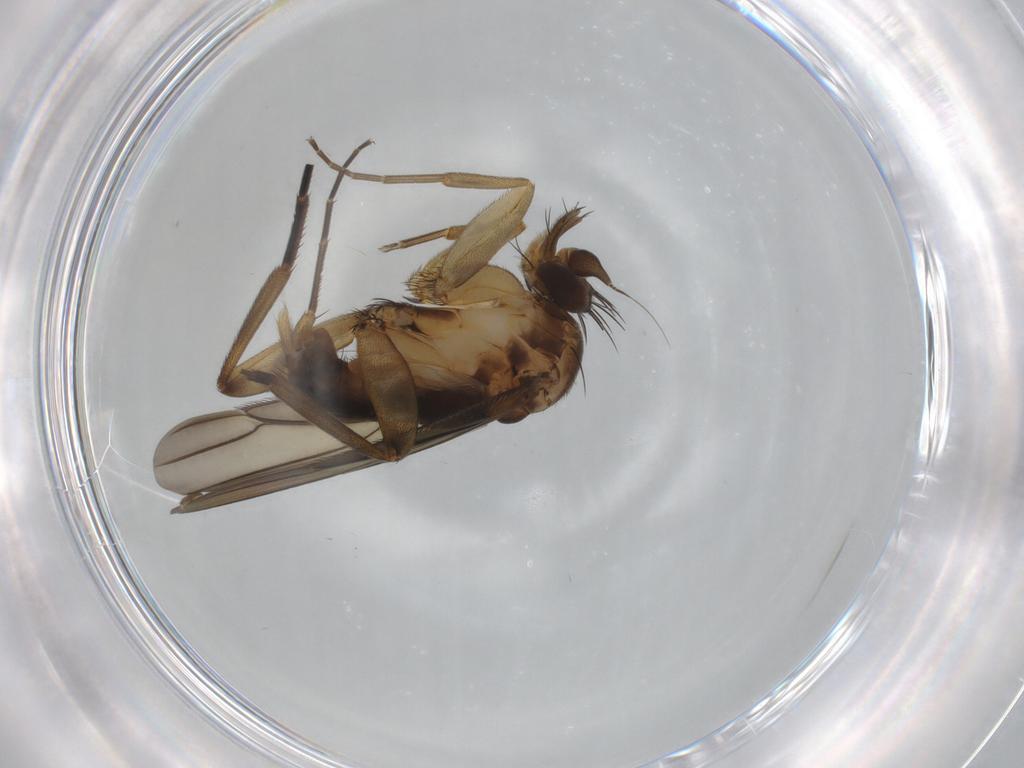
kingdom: Animalia
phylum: Arthropoda
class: Insecta
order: Diptera
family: Phoridae
